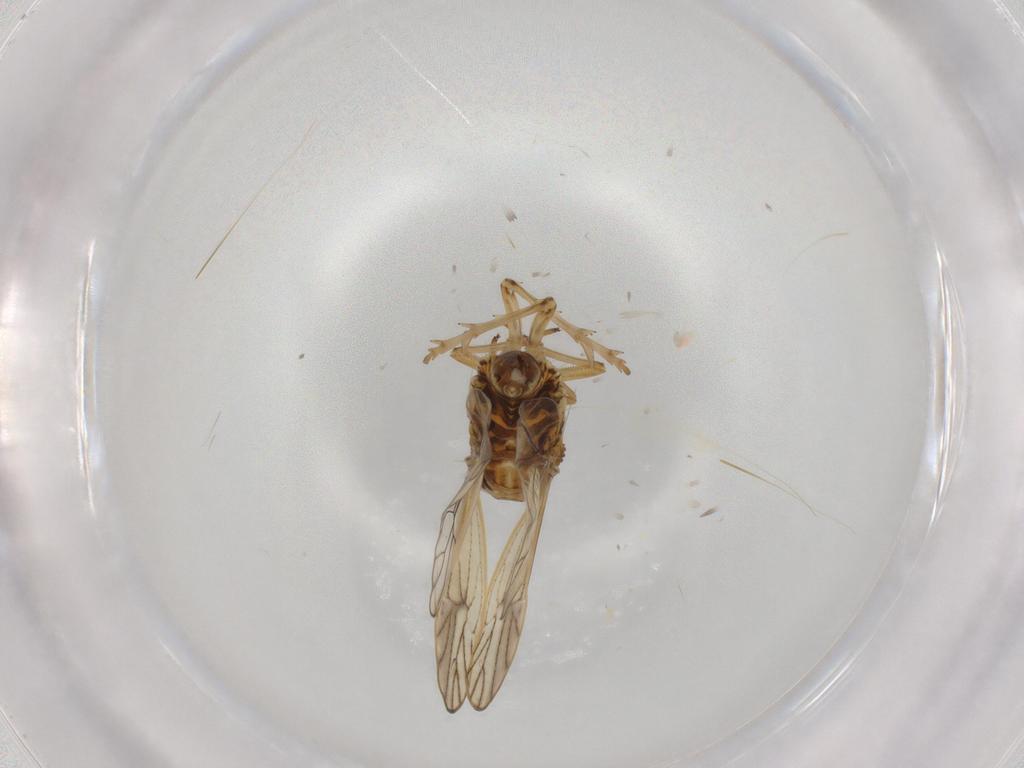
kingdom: Animalia
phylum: Arthropoda
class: Insecta
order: Hemiptera
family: Delphacidae
